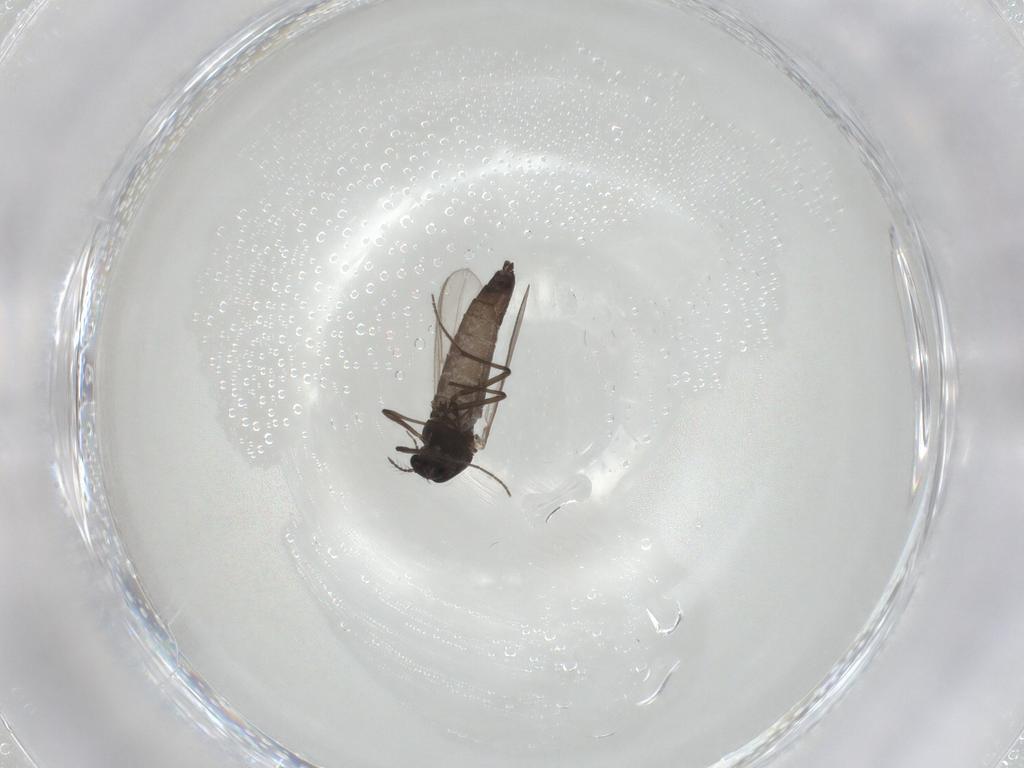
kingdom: Animalia
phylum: Arthropoda
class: Insecta
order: Diptera
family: Chironomidae
